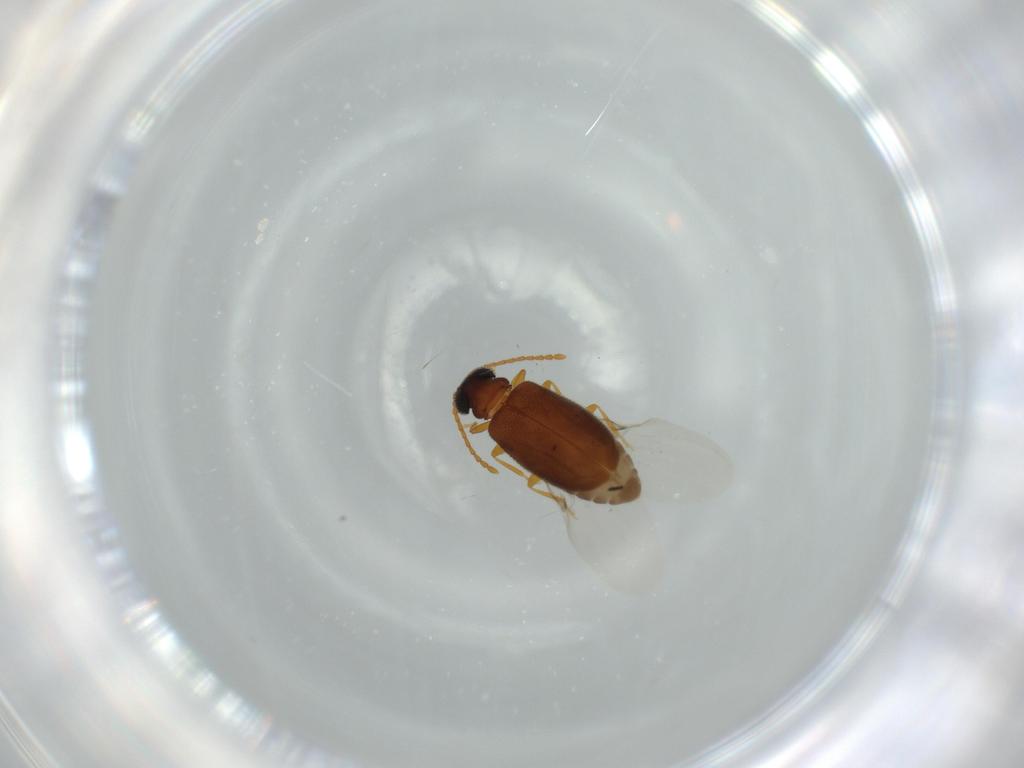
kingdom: Animalia
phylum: Arthropoda
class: Insecta
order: Coleoptera
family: Aderidae
